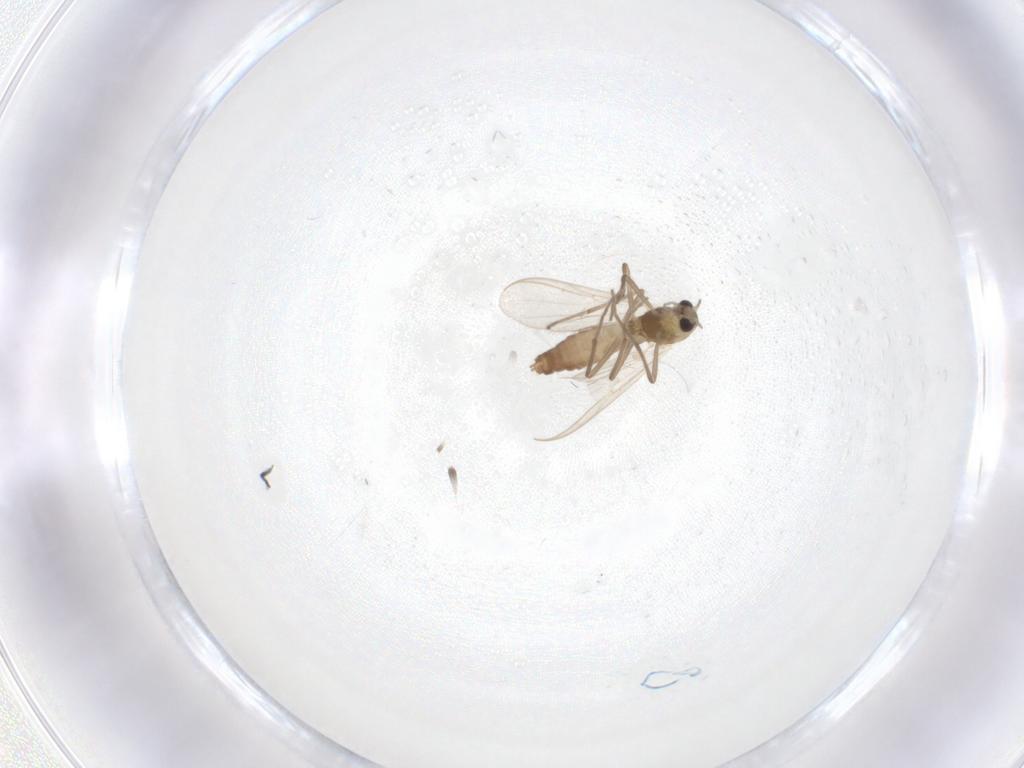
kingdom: Animalia
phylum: Arthropoda
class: Insecta
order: Diptera
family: Chironomidae
